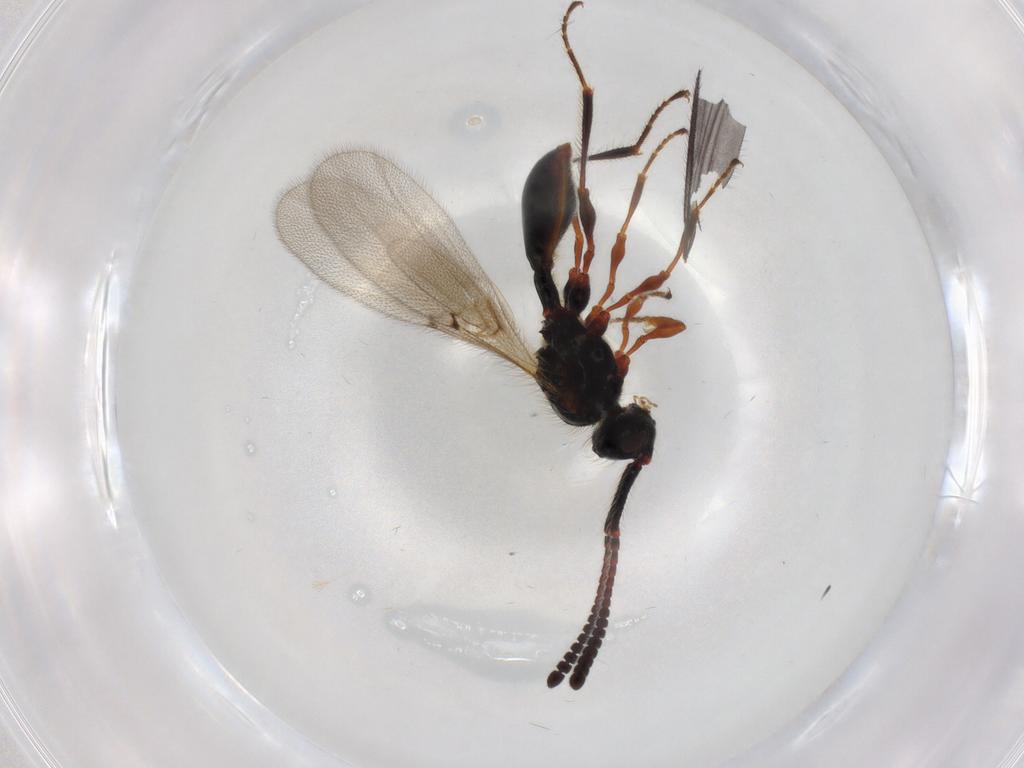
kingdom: Animalia
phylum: Arthropoda
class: Insecta
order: Hymenoptera
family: Diapriidae
